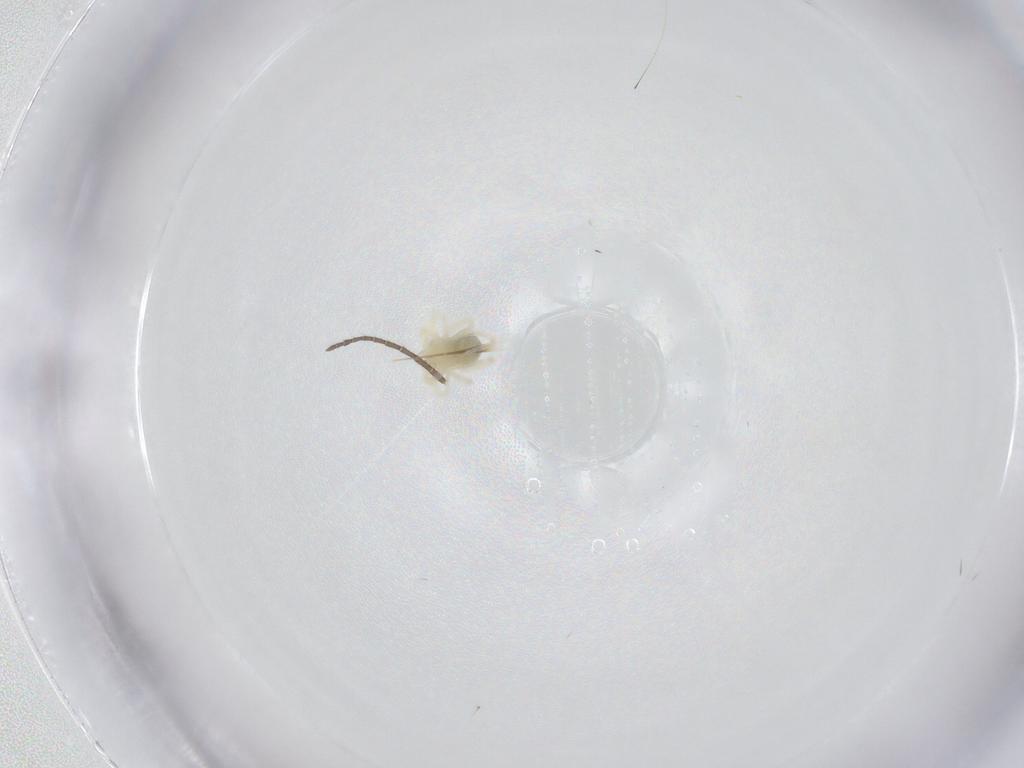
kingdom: Animalia
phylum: Arthropoda
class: Arachnida
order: Trombidiformes
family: Anystidae
